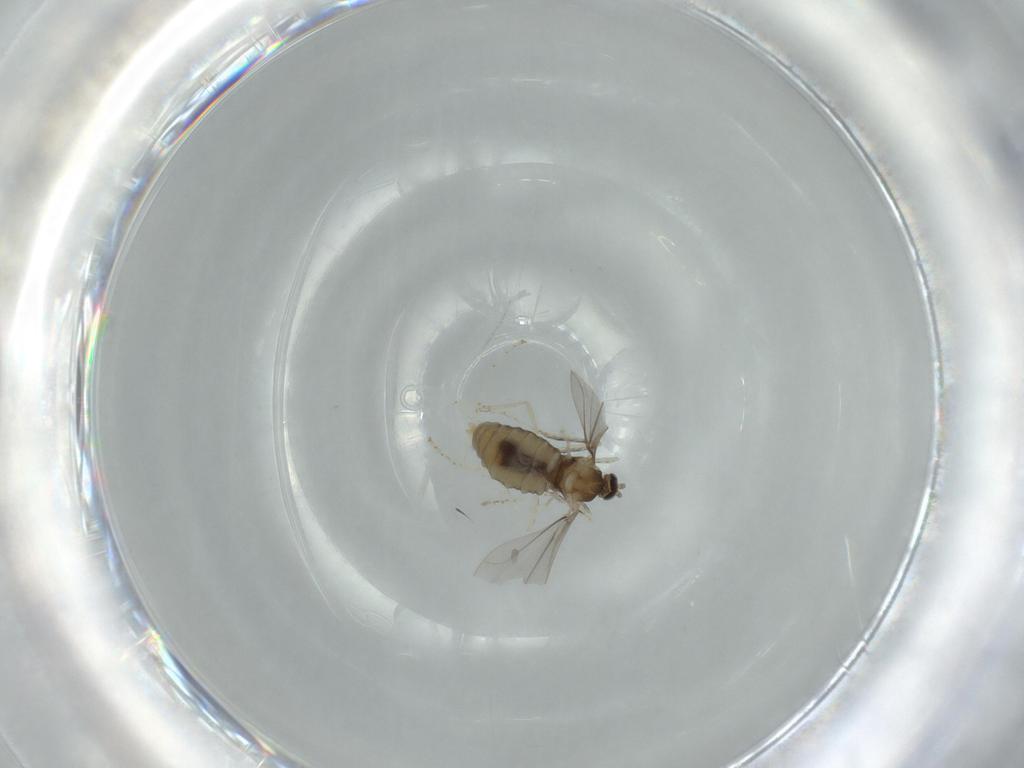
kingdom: Animalia
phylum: Arthropoda
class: Insecta
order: Diptera
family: Cecidomyiidae
